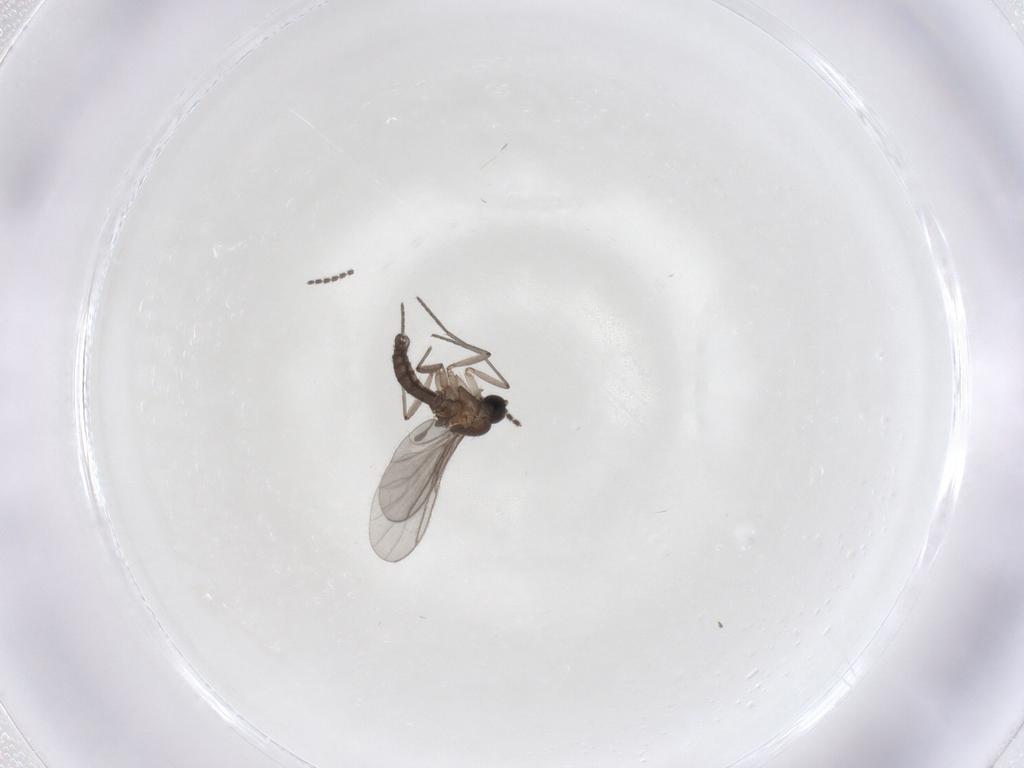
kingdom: Animalia
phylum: Arthropoda
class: Insecta
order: Diptera
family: Sciaridae
